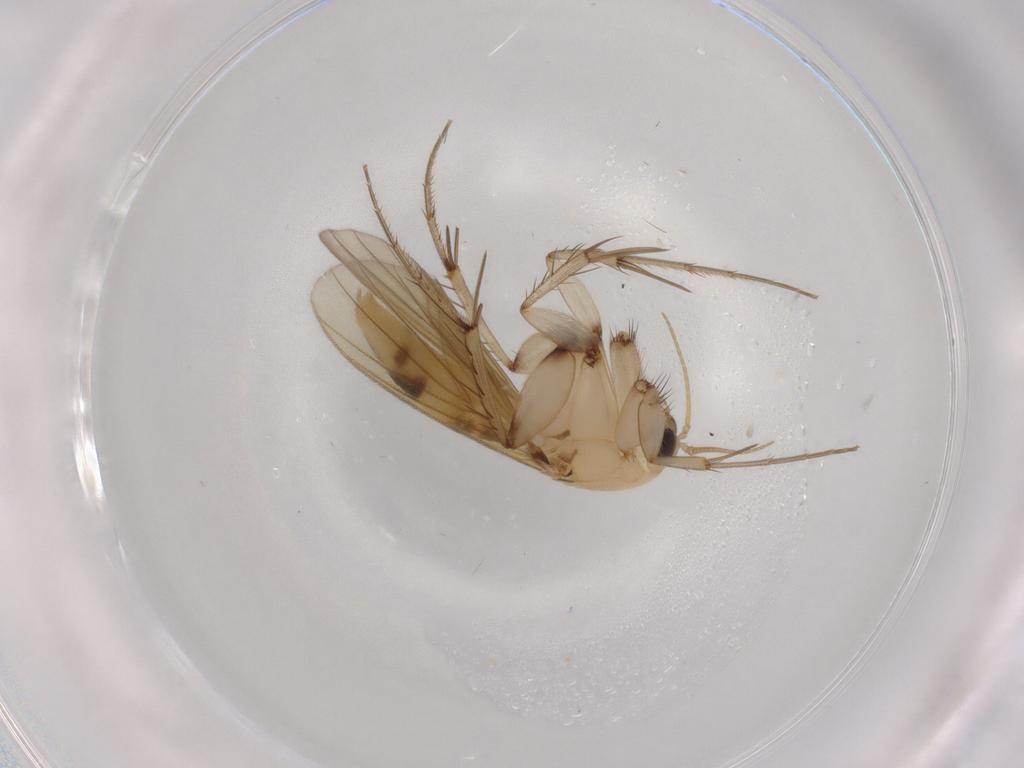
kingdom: Animalia
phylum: Arthropoda
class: Insecta
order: Diptera
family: Mycetophilidae
